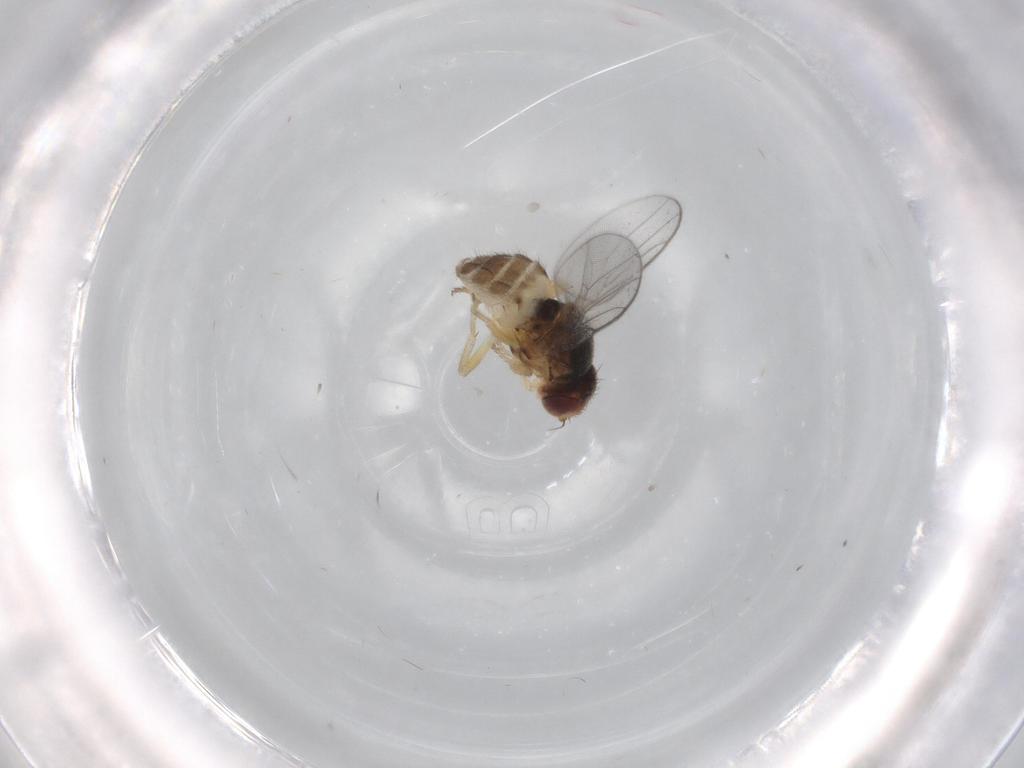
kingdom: Animalia
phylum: Arthropoda
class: Insecta
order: Diptera
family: Chloropidae
